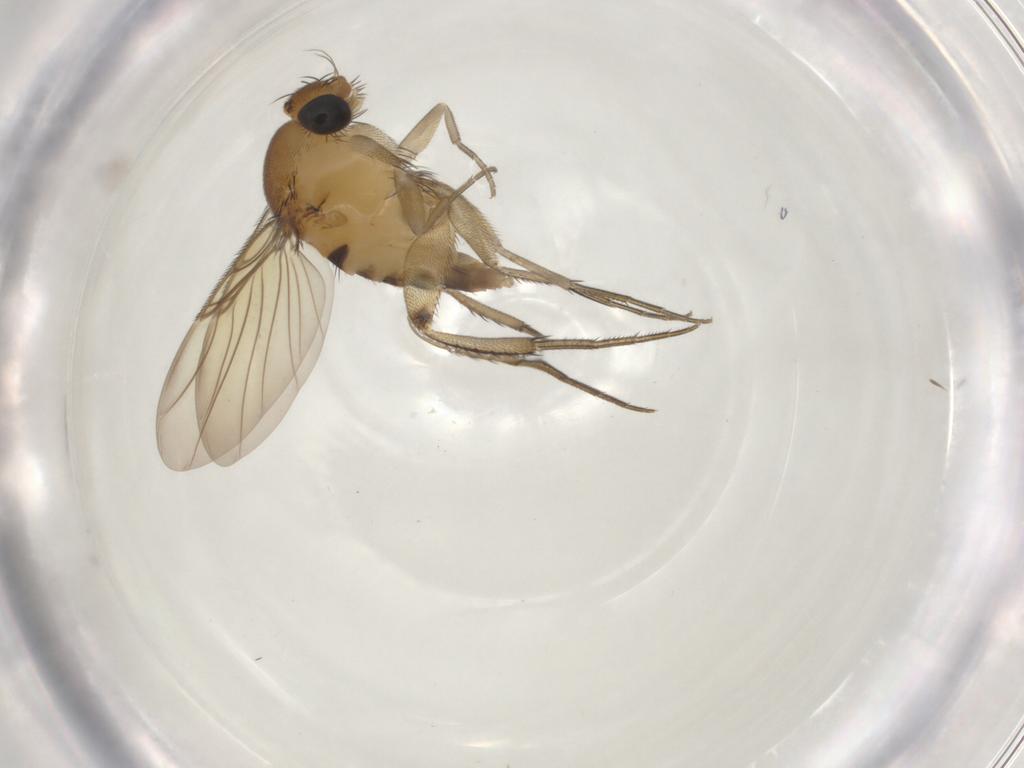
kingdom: Animalia
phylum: Arthropoda
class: Insecta
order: Diptera
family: Phoridae
